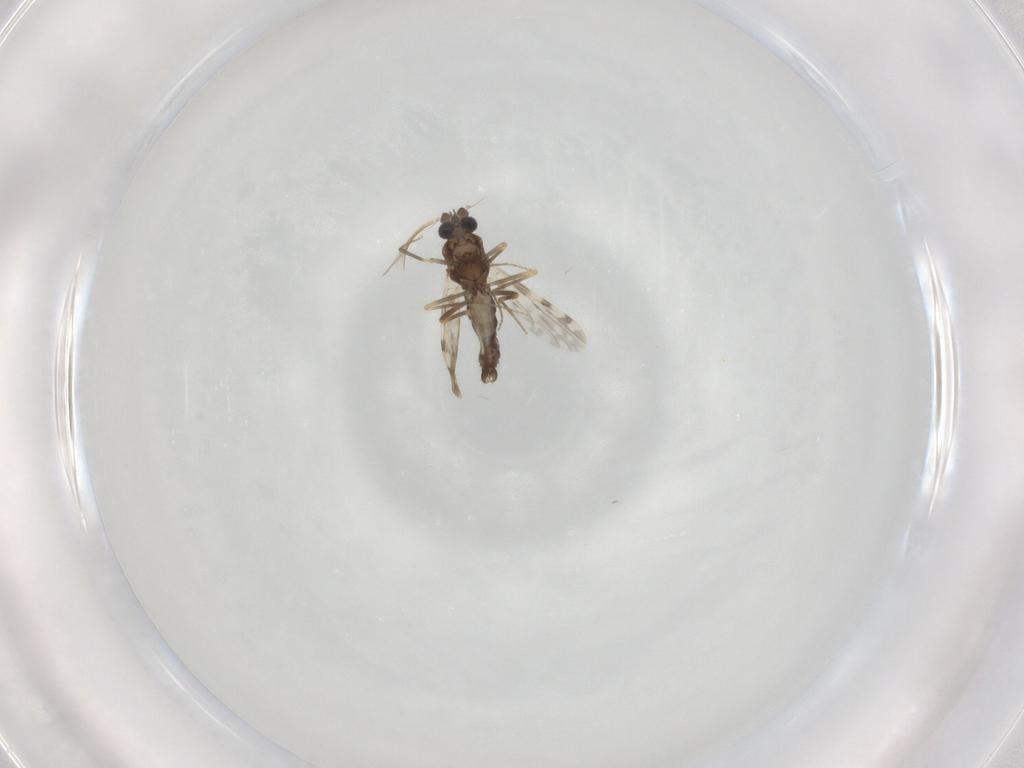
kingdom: Animalia
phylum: Arthropoda
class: Insecta
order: Diptera
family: Ceratopogonidae
